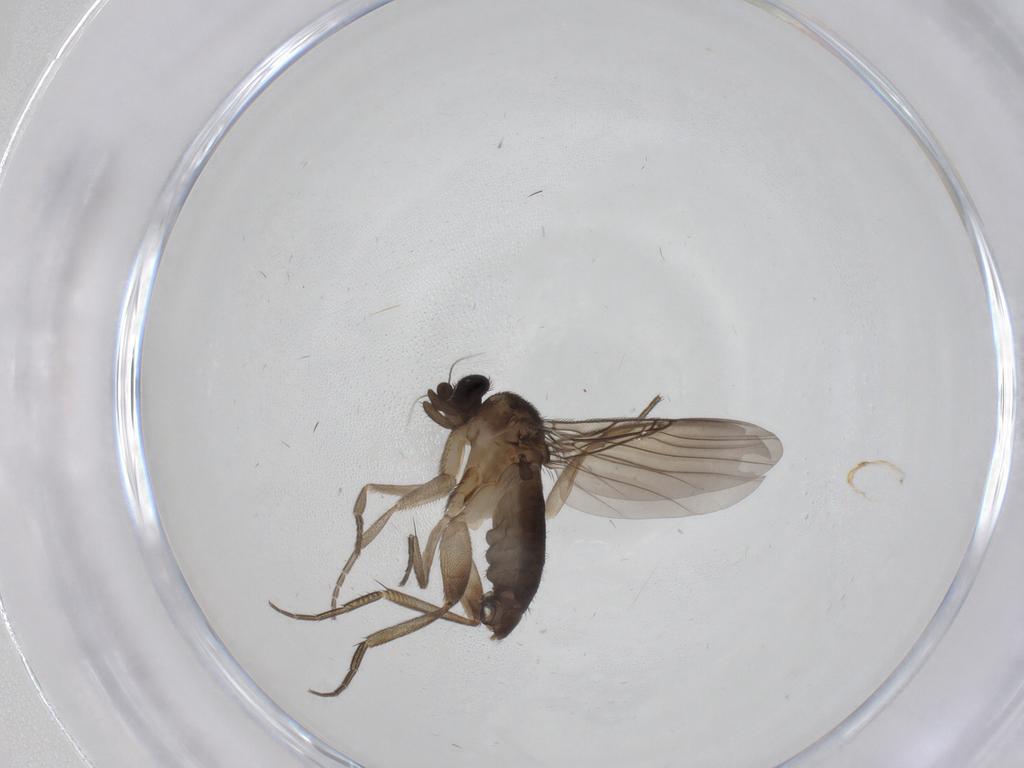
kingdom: Animalia
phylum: Arthropoda
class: Insecta
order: Diptera
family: Phoridae
